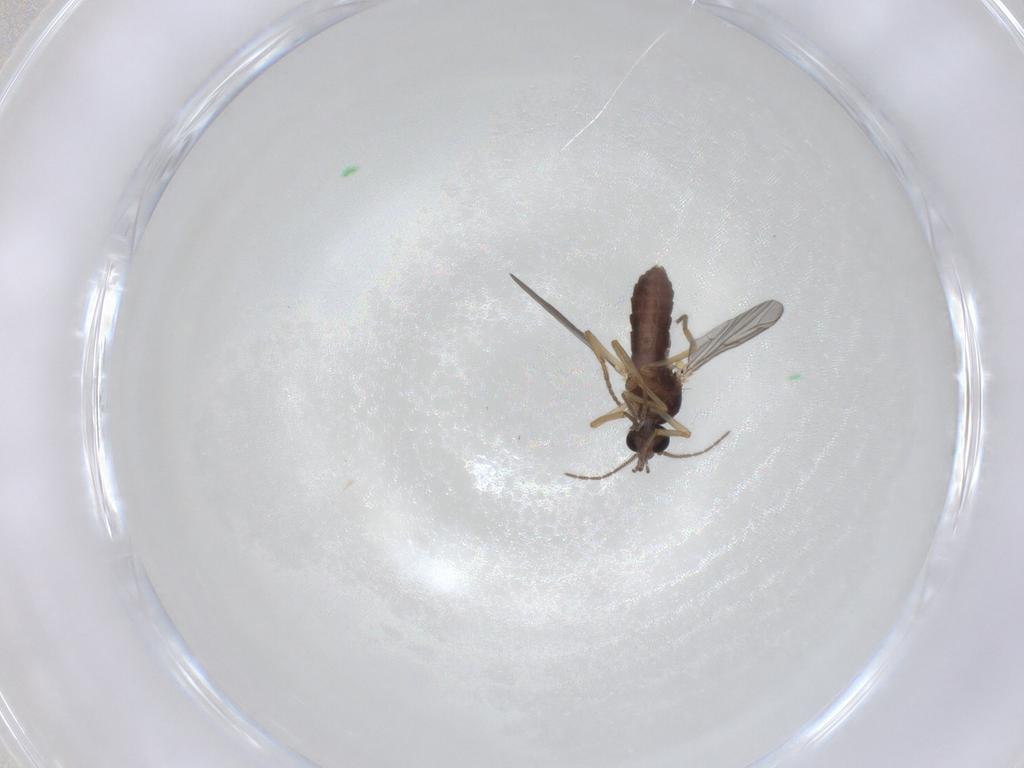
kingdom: Animalia
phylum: Arthropoda
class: Insecta
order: Diptera
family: Ceratopogonidae
